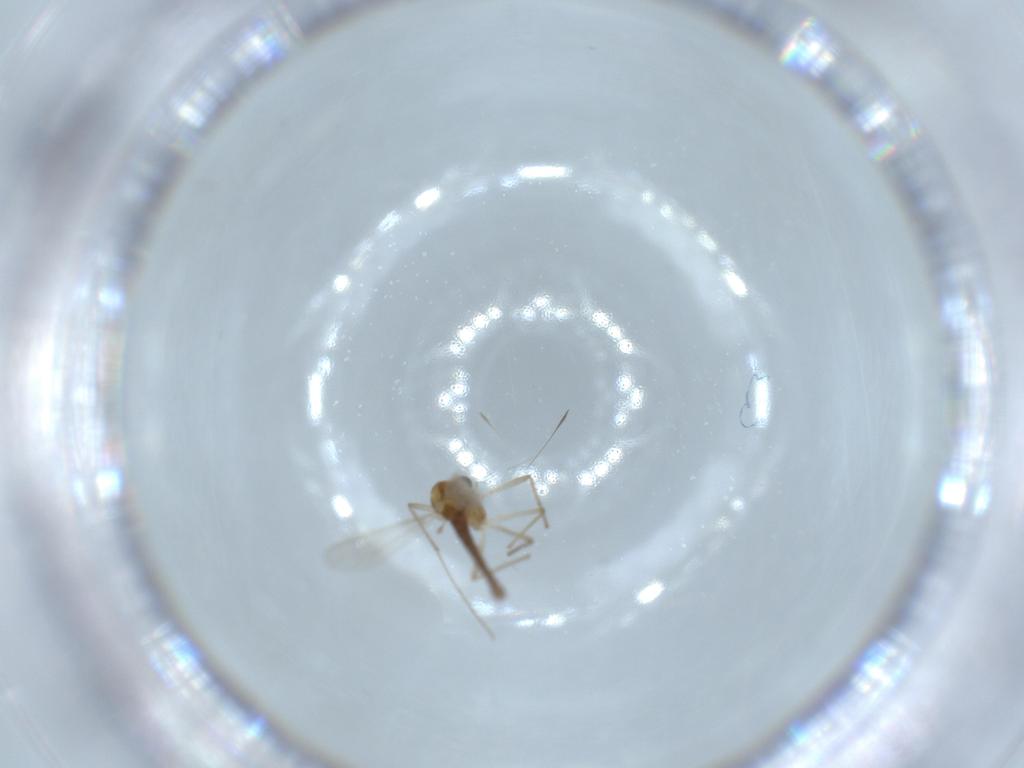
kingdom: Animalia
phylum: Arthropoda
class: Insecta
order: Diptera
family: Chironomidae
